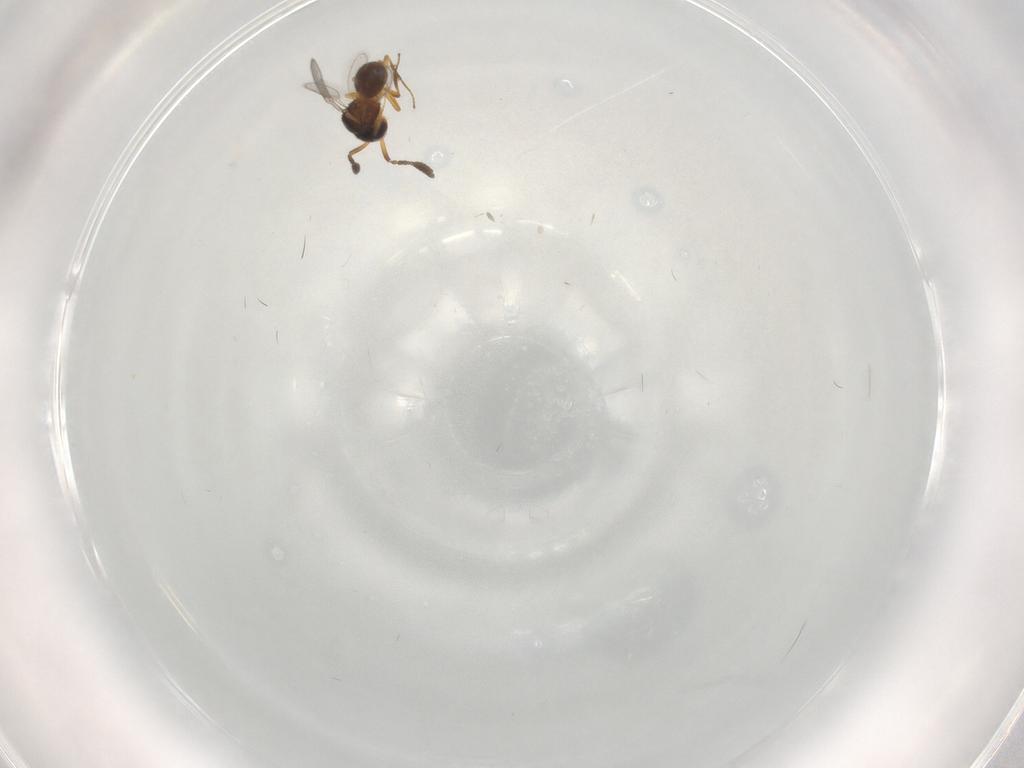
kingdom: Animalia
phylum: Arthropoda
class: Insecta
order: Hymenoptera
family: Scelionidae
